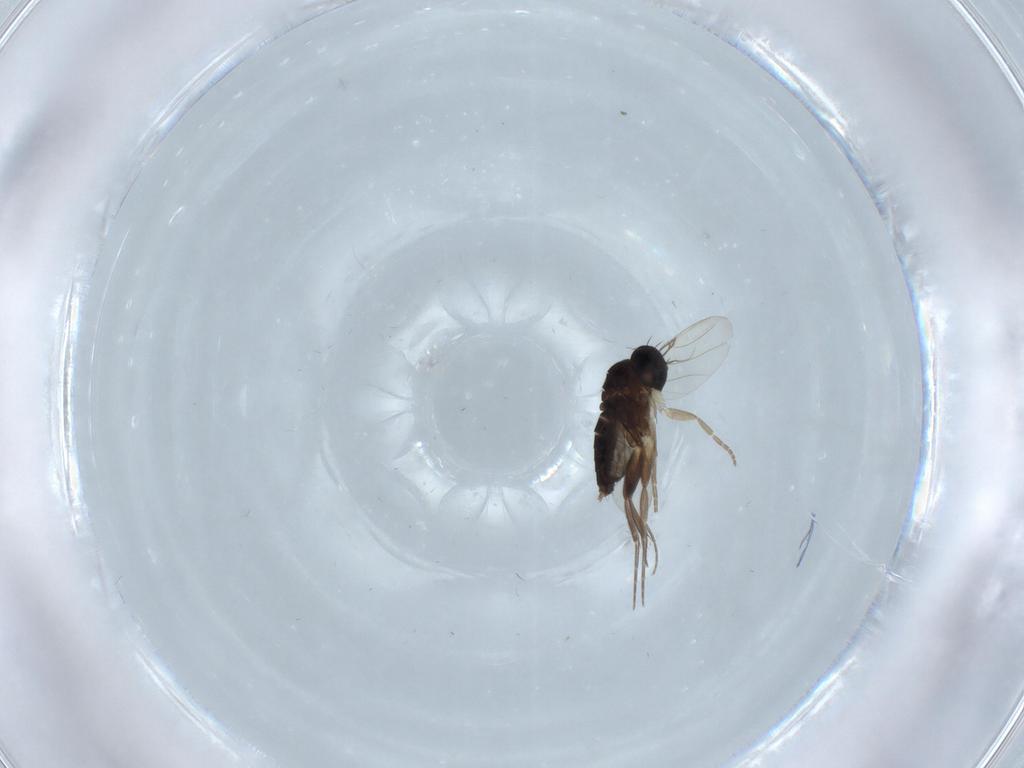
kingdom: Animalia
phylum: Arthropoda
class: Insecta
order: Diptera
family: Phoridae
